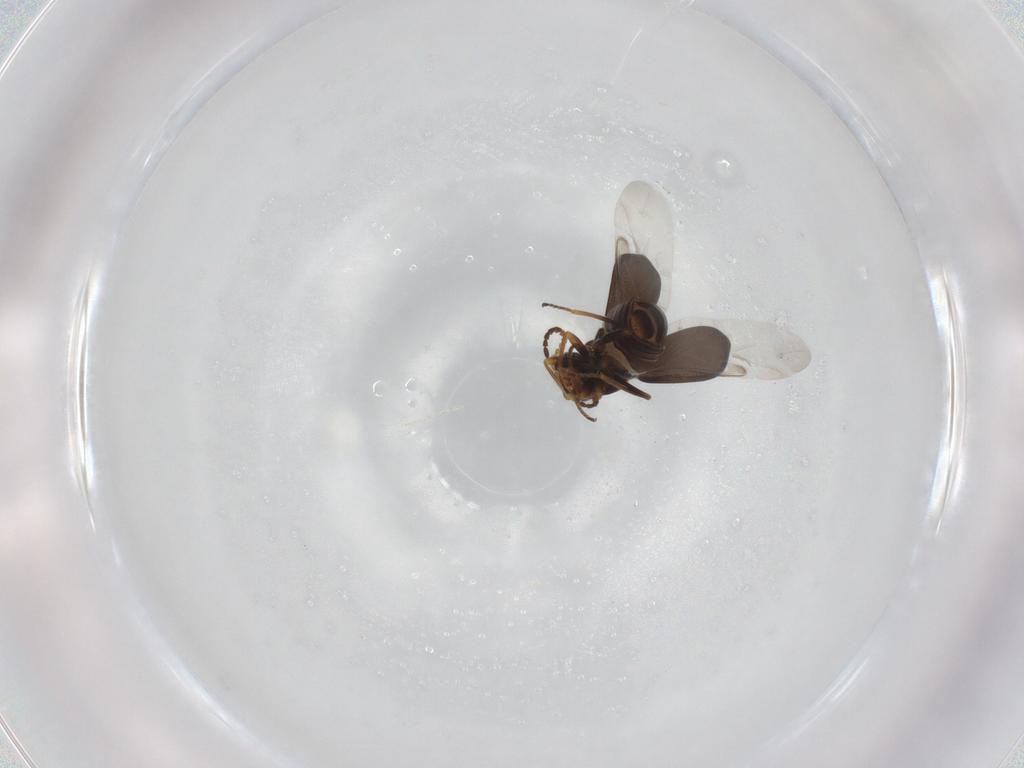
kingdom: Animalia
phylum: Arthropoda
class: Insecta
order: Coleoptera
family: Melyridae
